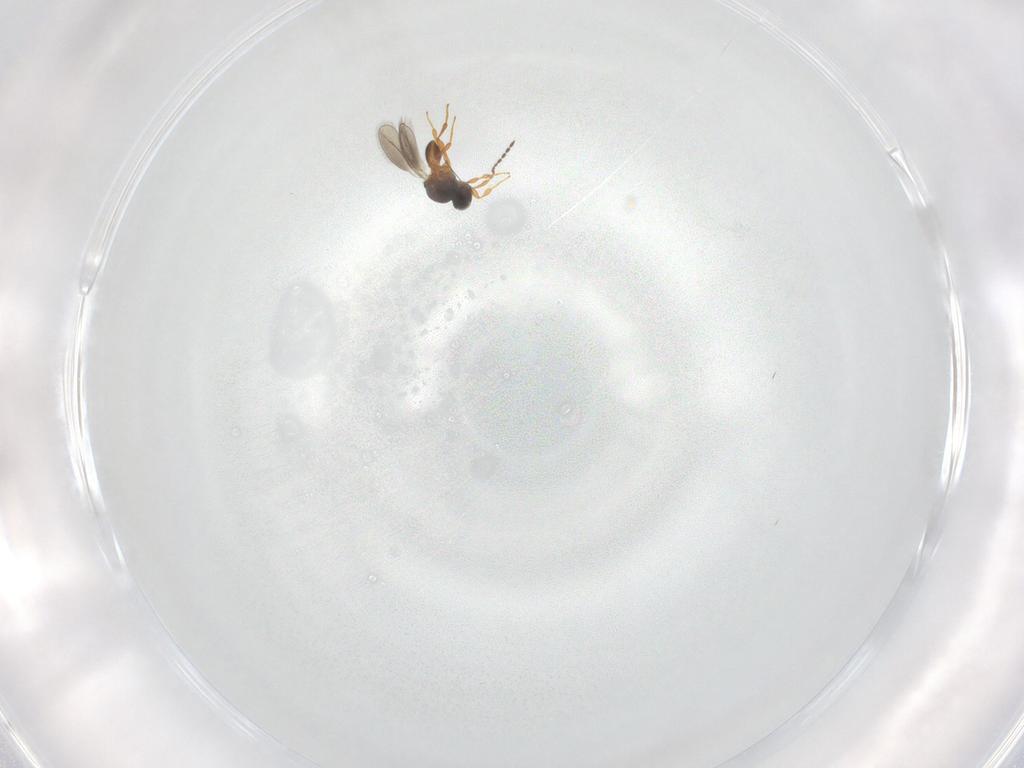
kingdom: Animalia
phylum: Arthropoda
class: Insecta
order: Hymenoptera
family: Platygastridae
